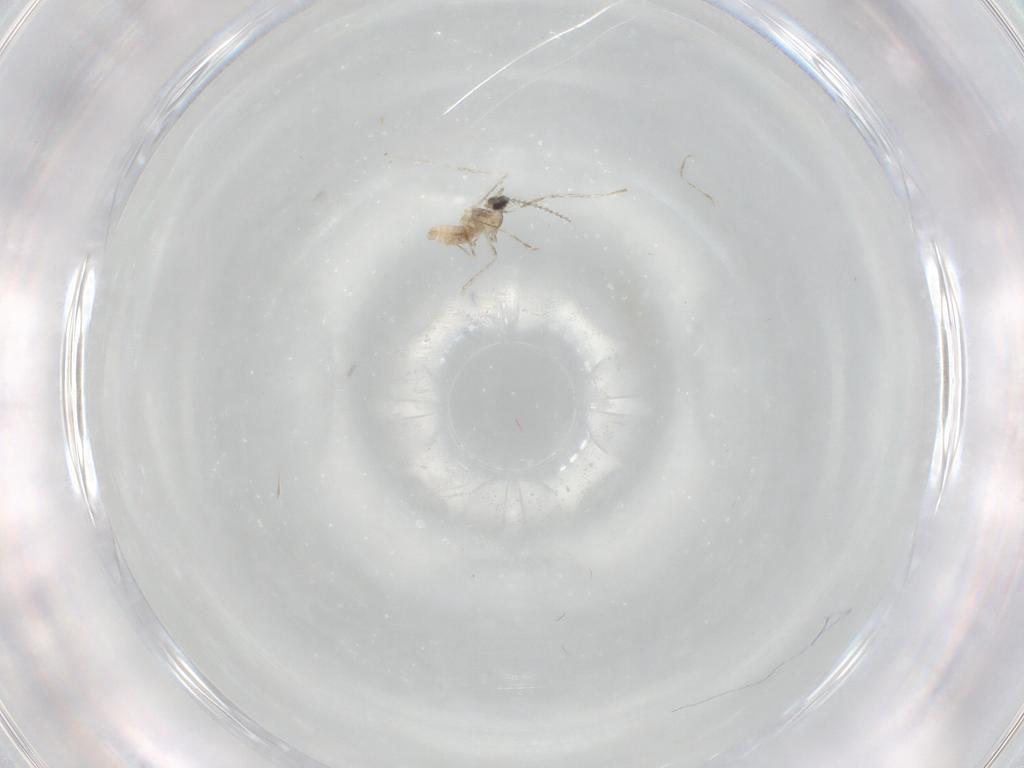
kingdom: Animalia
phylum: Arthropoda
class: Insecta
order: Diptera
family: Cecidomyiidae
